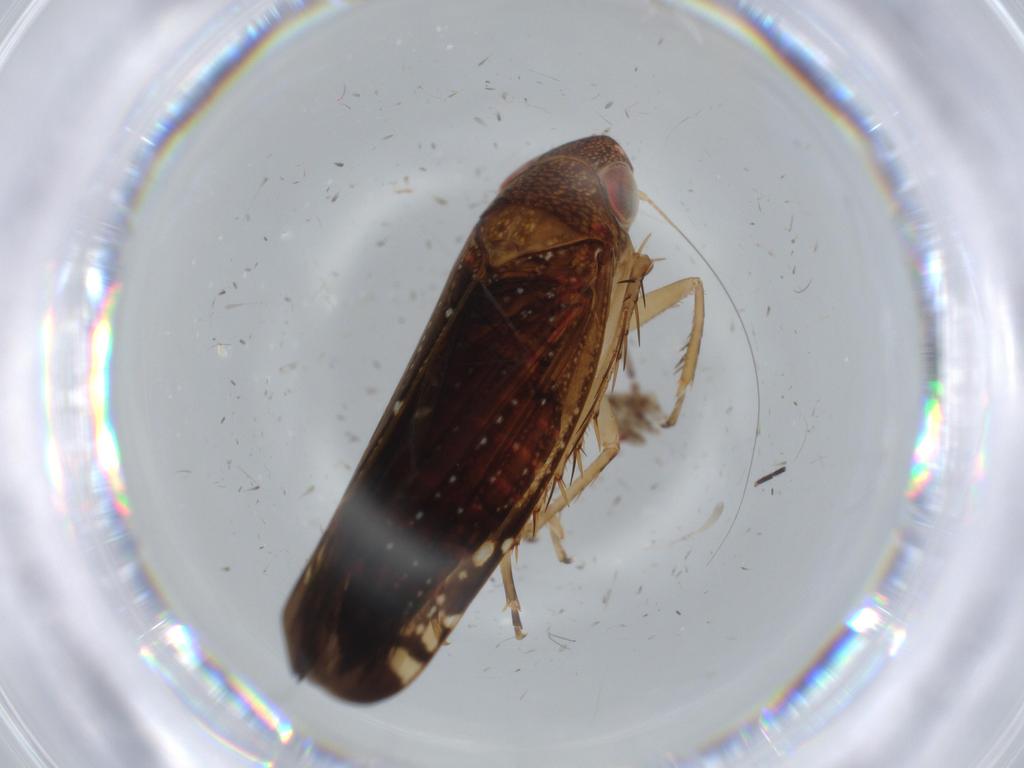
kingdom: Animalia
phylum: Arthropoda
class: Insecta
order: Hemiptera
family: Cicadellidae
